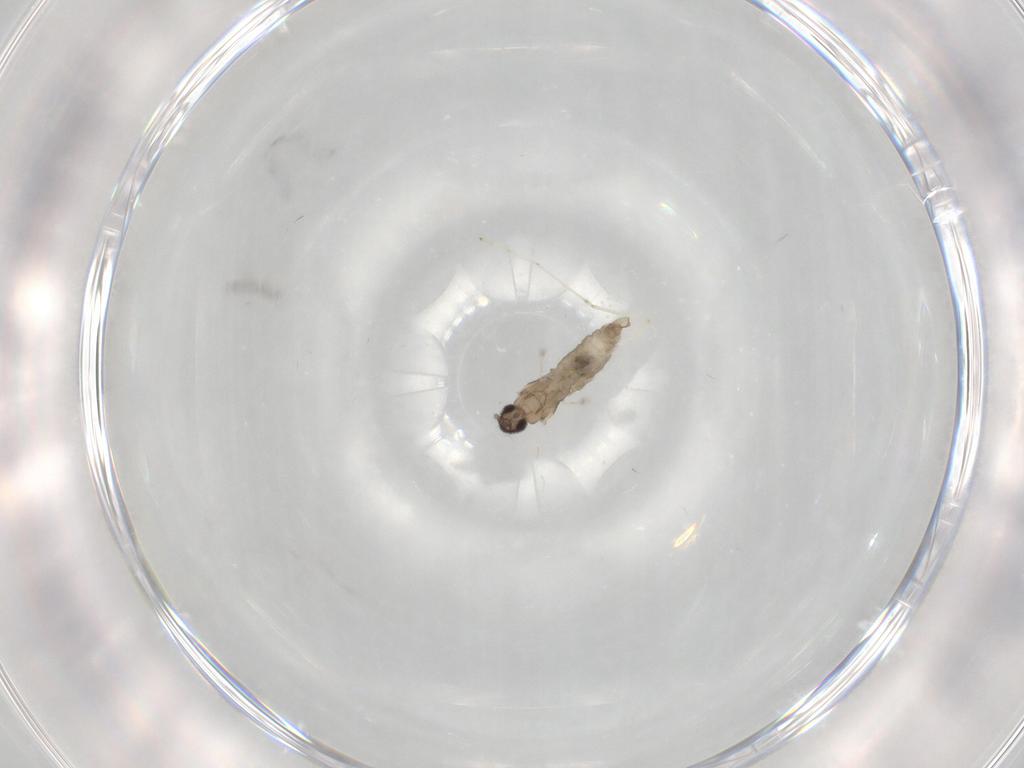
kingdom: Animalia
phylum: Arthropoda
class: Insecta
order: Diptera
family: Cecidomyiidae
